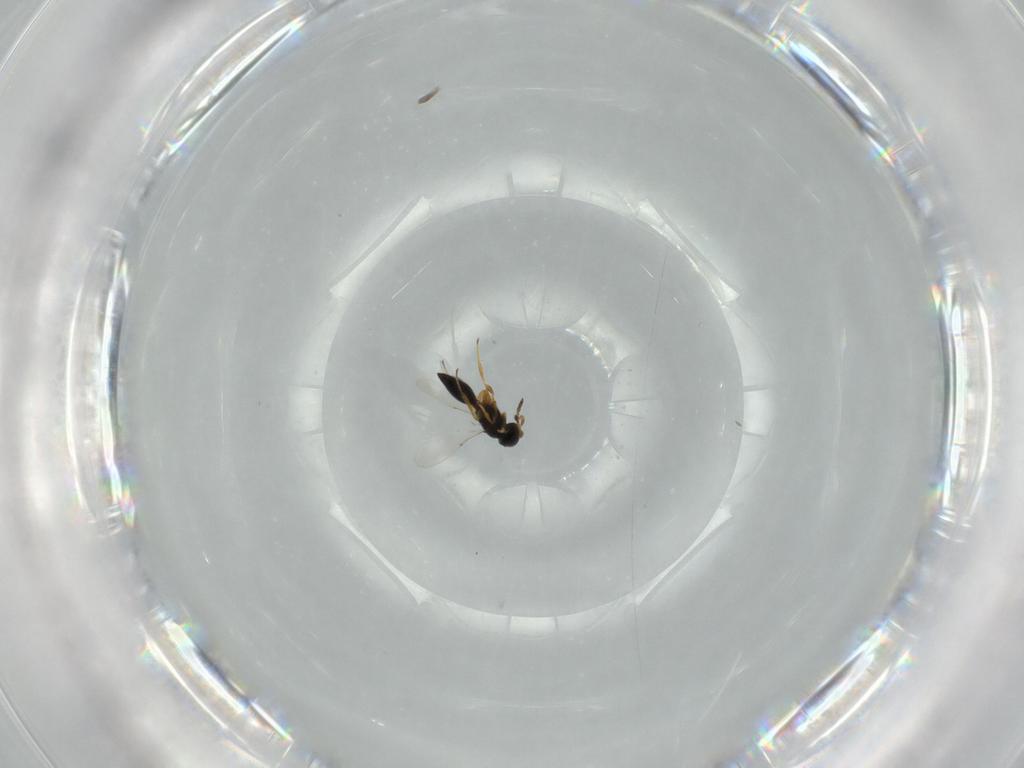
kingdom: Animalia
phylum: Arthropoda
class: Insecta
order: Hymenoptera
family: Platygastridae
